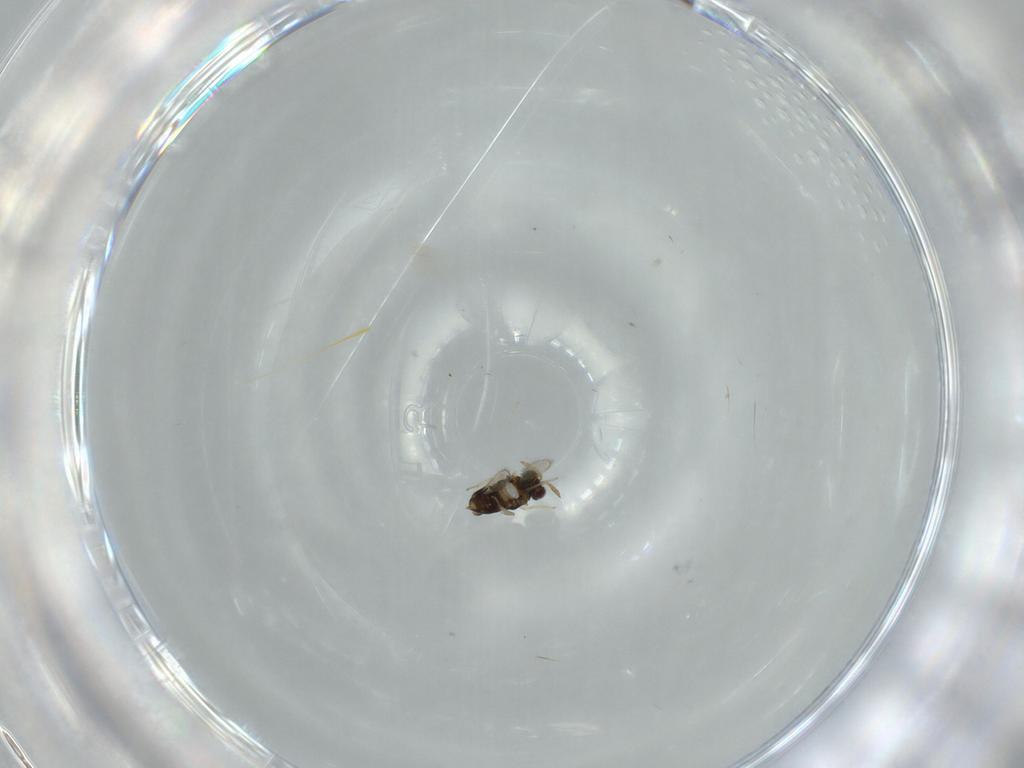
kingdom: Animalia
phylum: Arthropoda
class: Insecta
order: Hymenoptera
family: Aphelinidae
